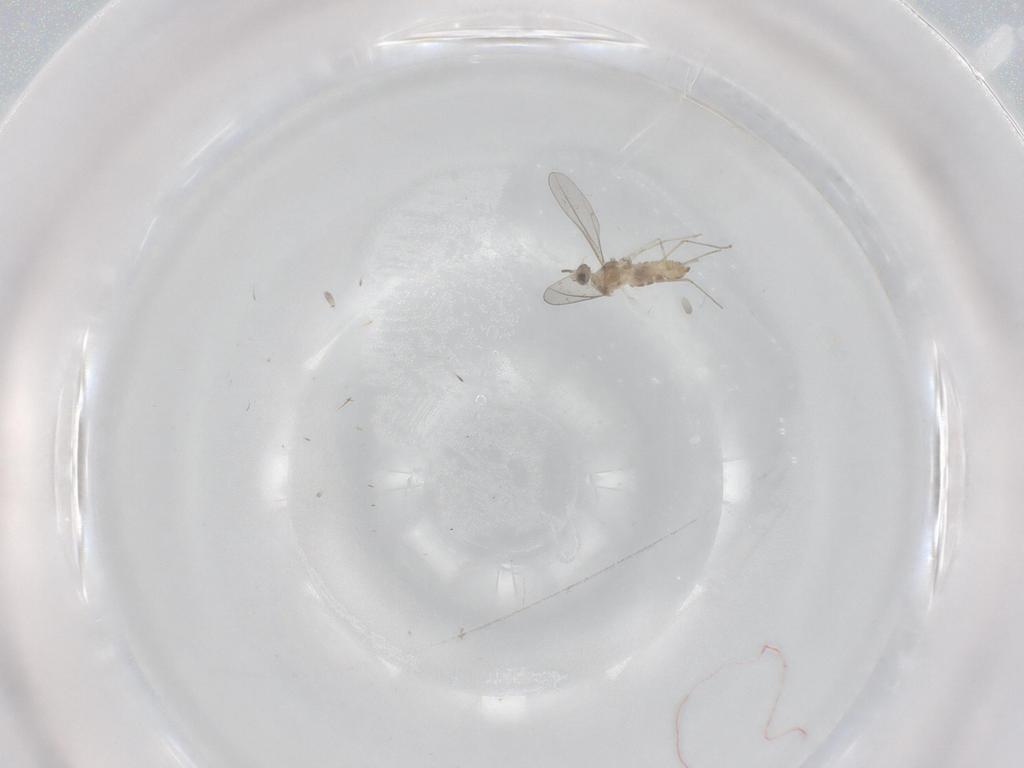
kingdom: Animalia
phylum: Arthropoda
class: Insecta
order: Diptera
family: Cecidomyiidae
